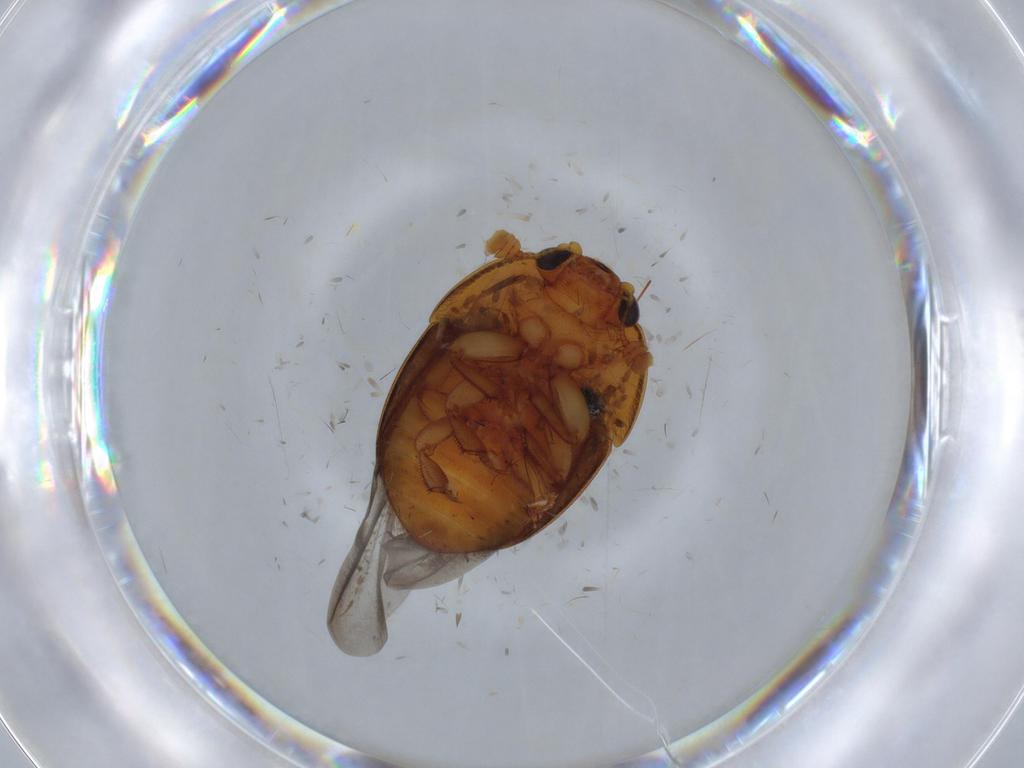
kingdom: Animalia
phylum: Arthropoda
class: Insecta
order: Coleoptera
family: Nitidulidae
